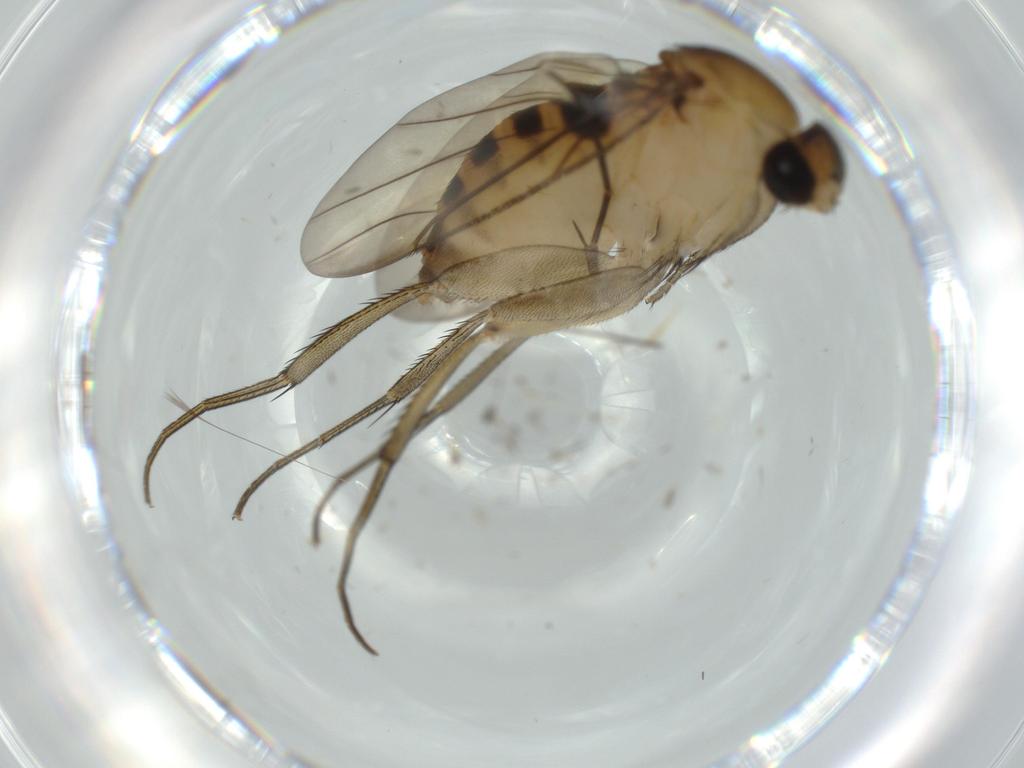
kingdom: Animalia
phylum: Arthropoda
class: Insecta
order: Diptera
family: Phoridae
